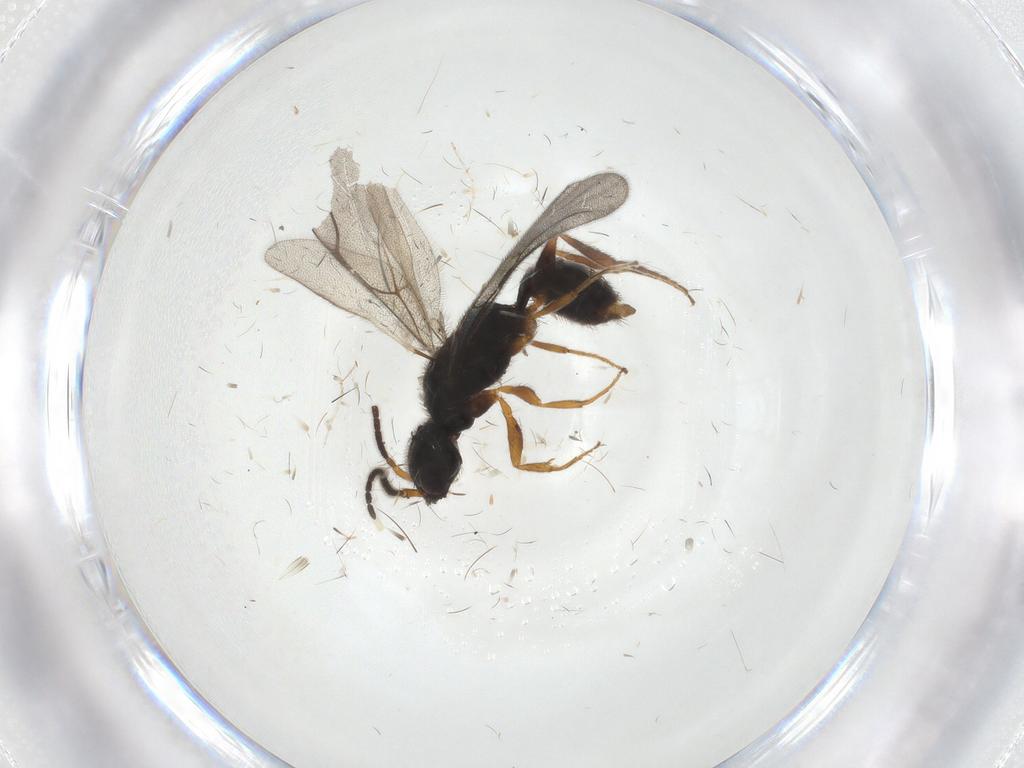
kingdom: Animalia
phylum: Arthropoda
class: Insecta
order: Hymenoptera
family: Bethylidae
